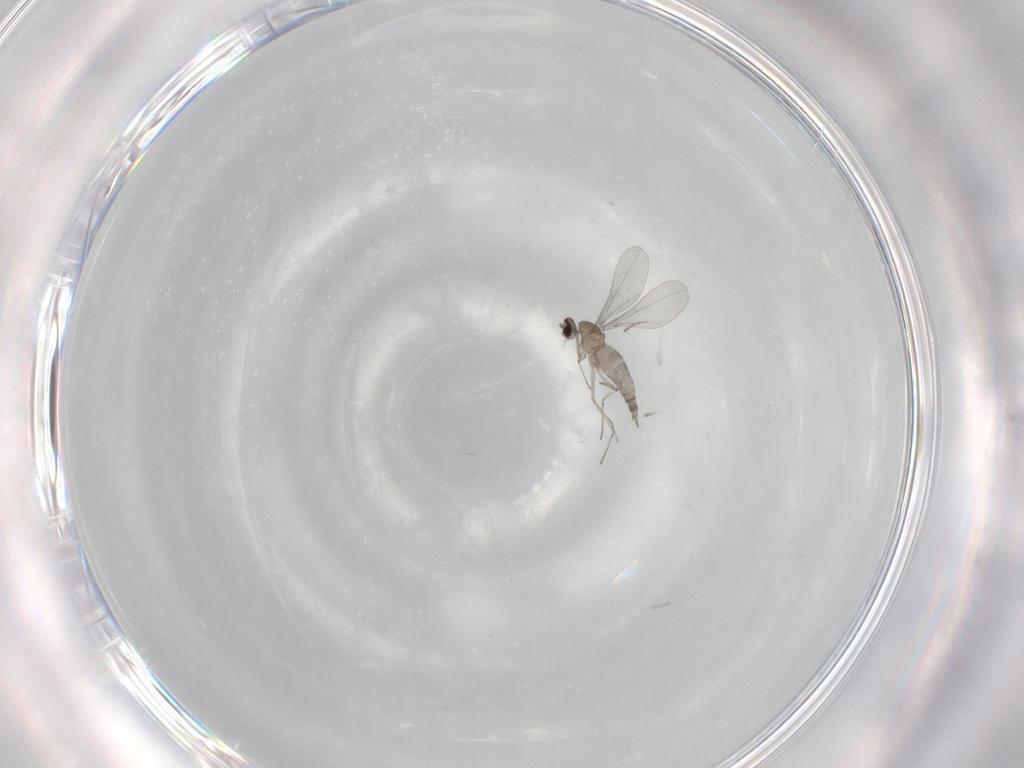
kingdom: Animalia
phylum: Arthropoda
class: Insecta
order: Diptera
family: Cecidomyiidae
